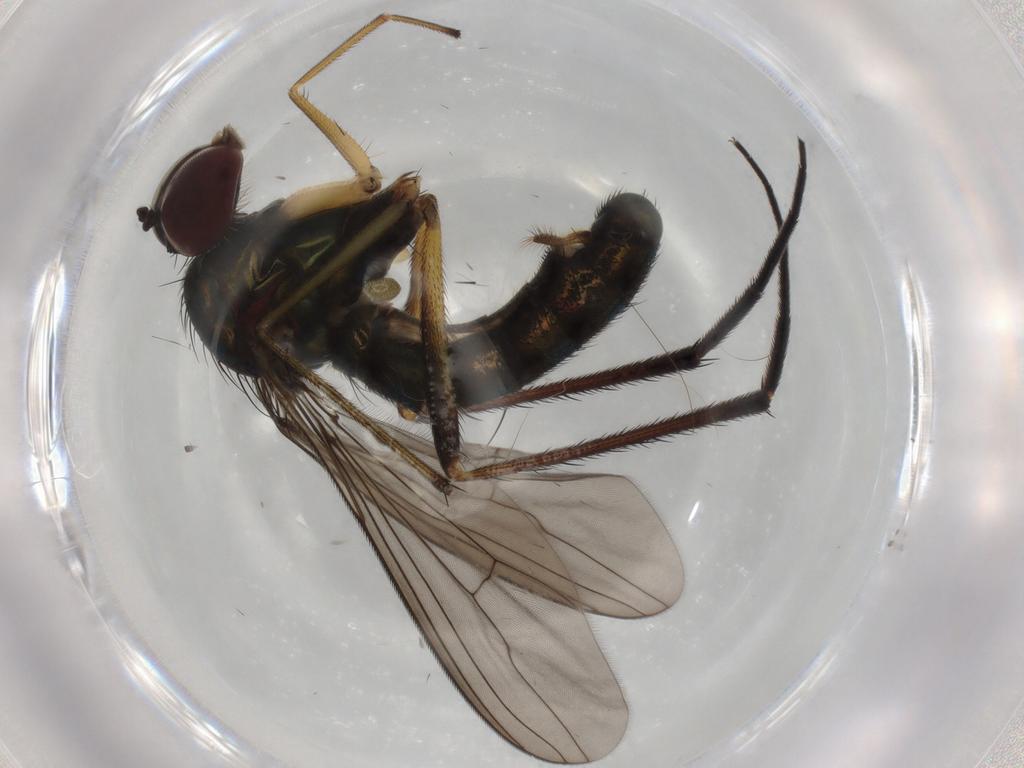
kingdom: Animalia
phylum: Arthropoda
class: Insecta
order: Diptera
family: Dolichopodidae
